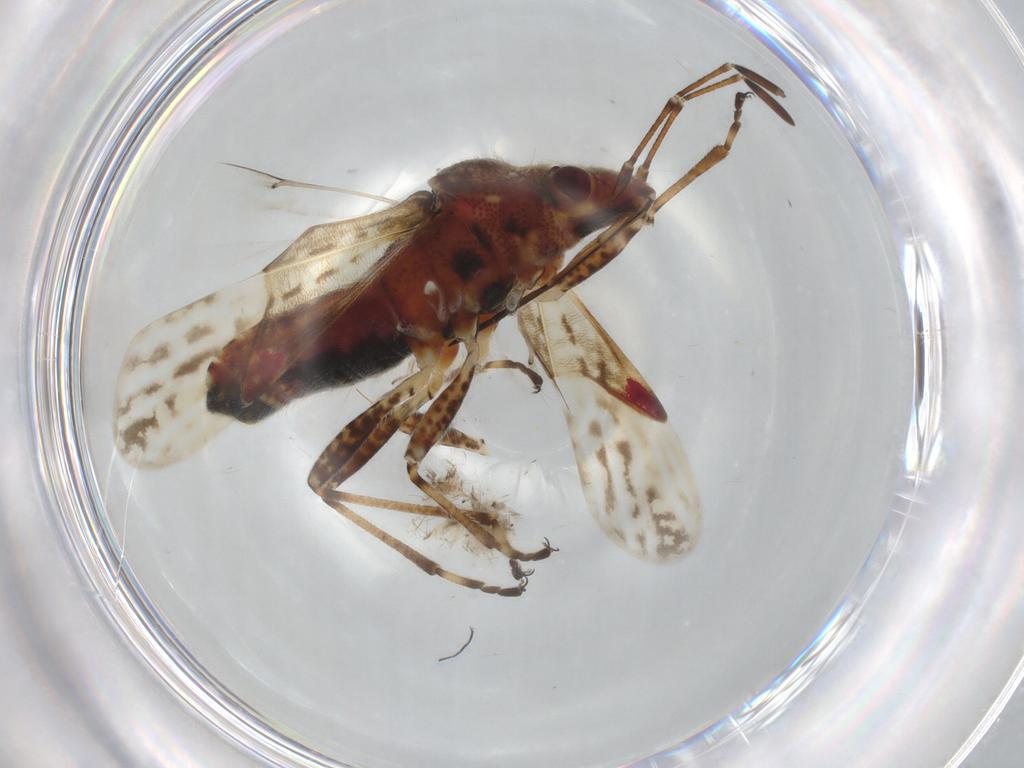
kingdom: Animalia
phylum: Arthropoda
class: Insecta
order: Hemiptera
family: Lygaeidae
